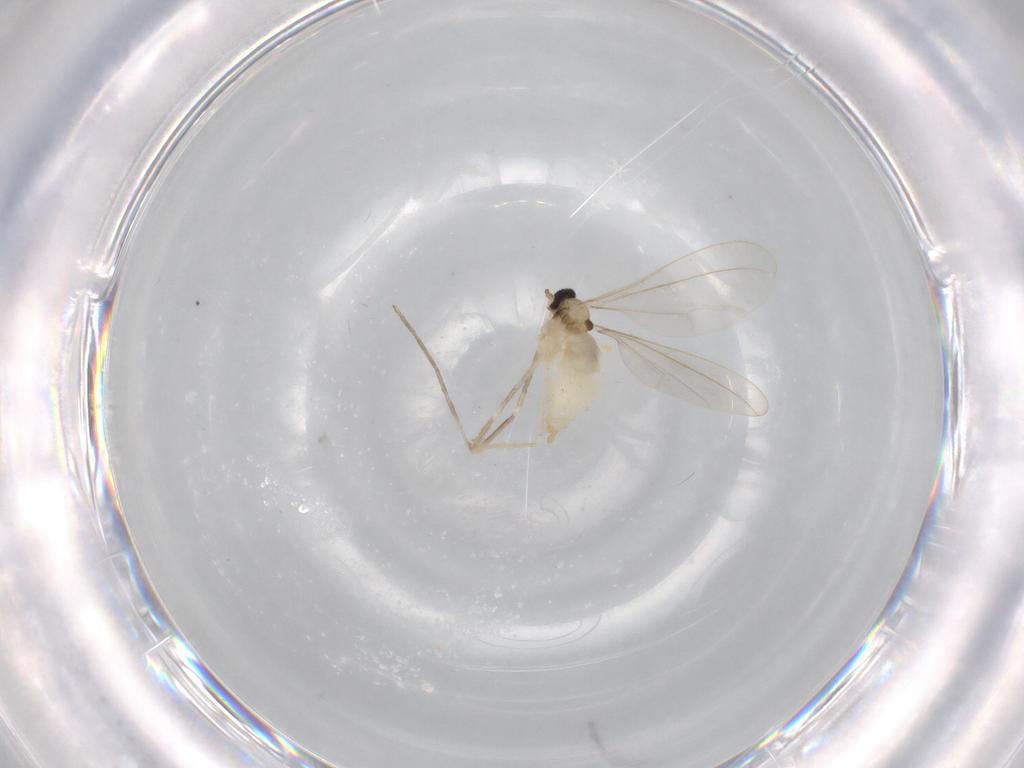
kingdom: Animalia
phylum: Arthropoda
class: Insecta
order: Diptera
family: Cecidomyiidae
